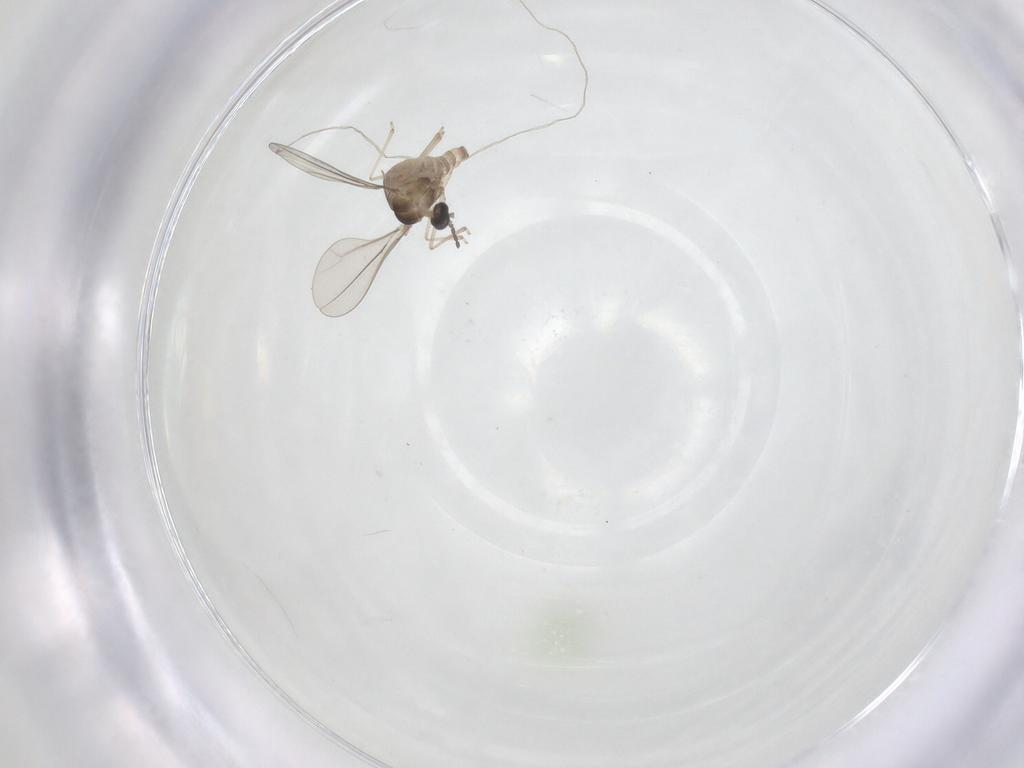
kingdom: Animalia
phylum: Arthropoda
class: Insecta
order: Diptera
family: Cecidomyiidae
